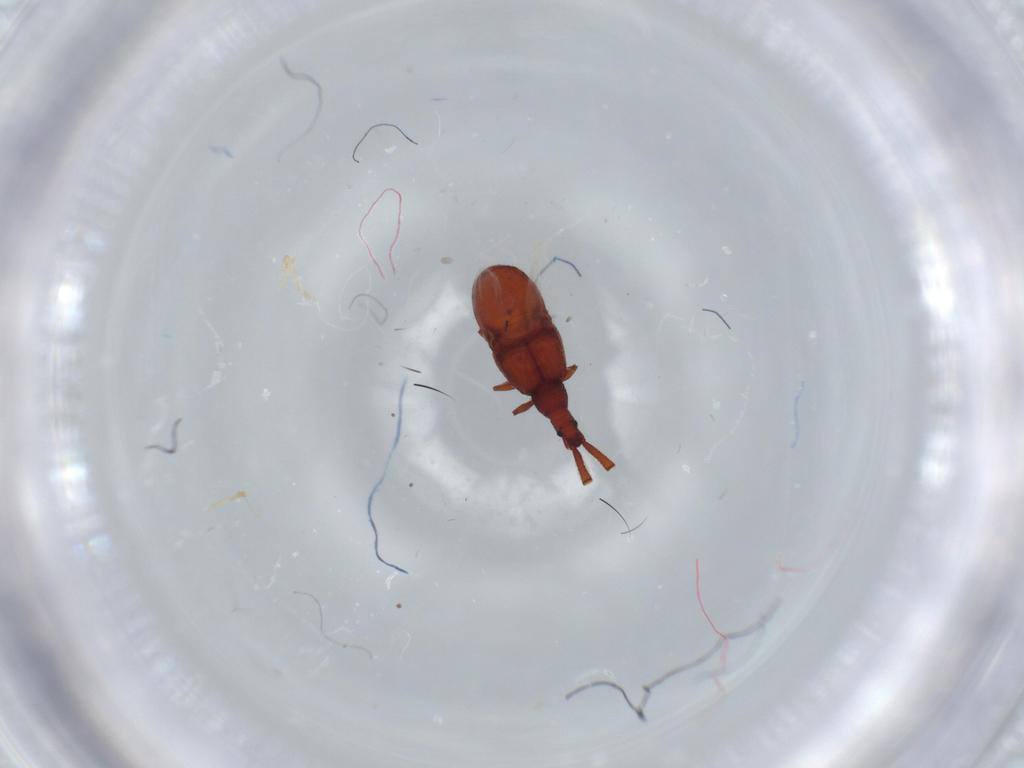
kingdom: Animalia
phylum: Arthropoda
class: Insecta
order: Coleoptera
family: Staphylinidae
